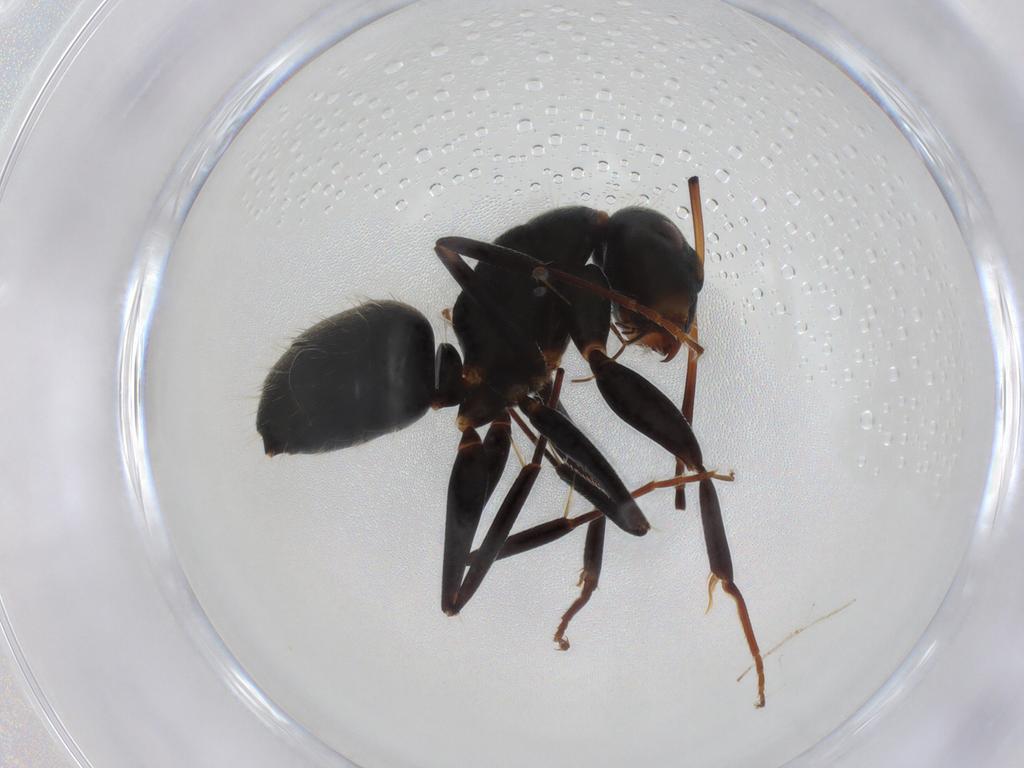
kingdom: Animalia
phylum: Arthropoda
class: Insecta
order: Hymenoptera
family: Formicidae
